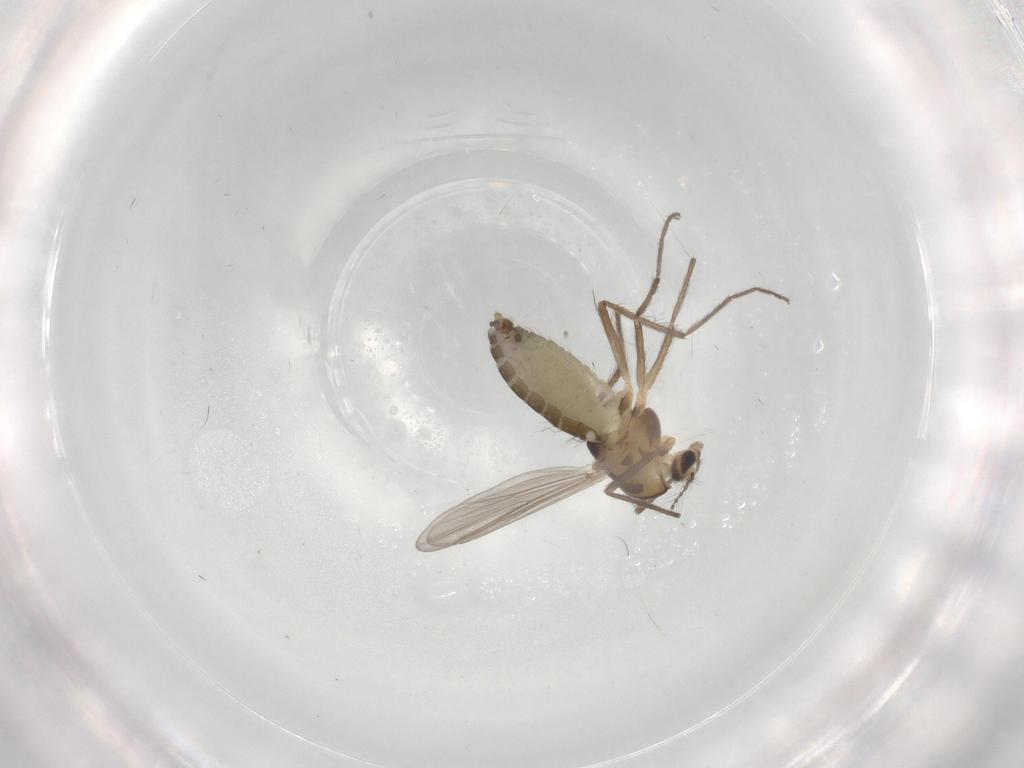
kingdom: Animalia
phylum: Arthropoda
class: Insecta
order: Diptera
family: Chironomidae
